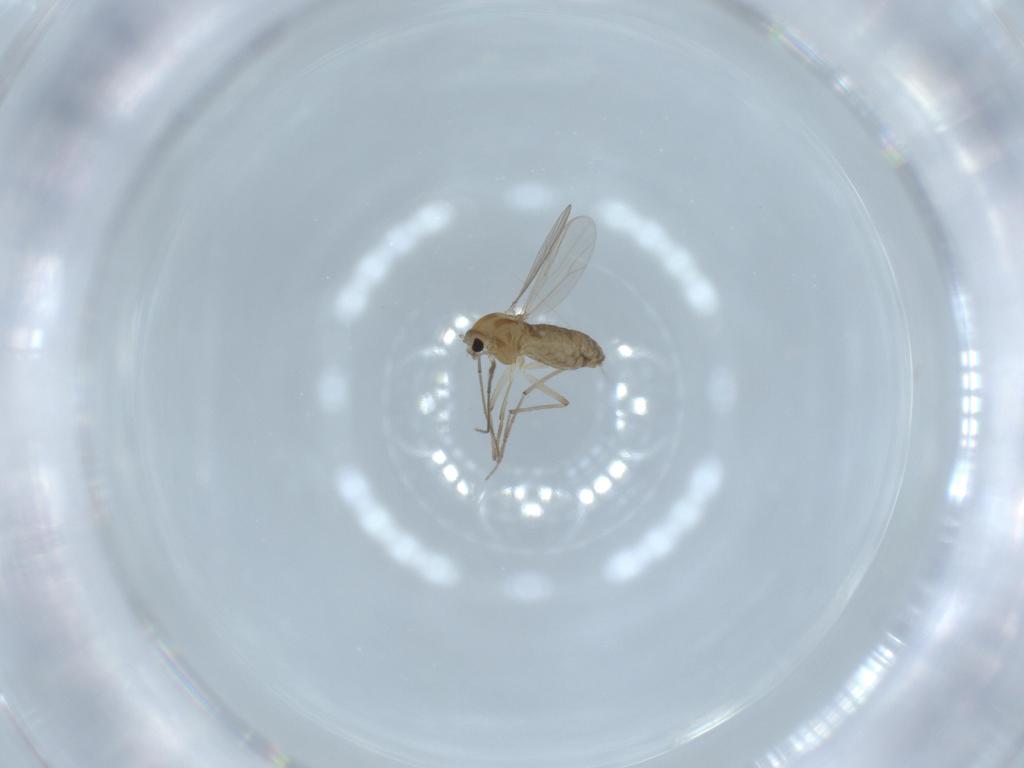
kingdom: Animalia
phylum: Arthropoda
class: Insecta
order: Diptera
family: Chironomidae
